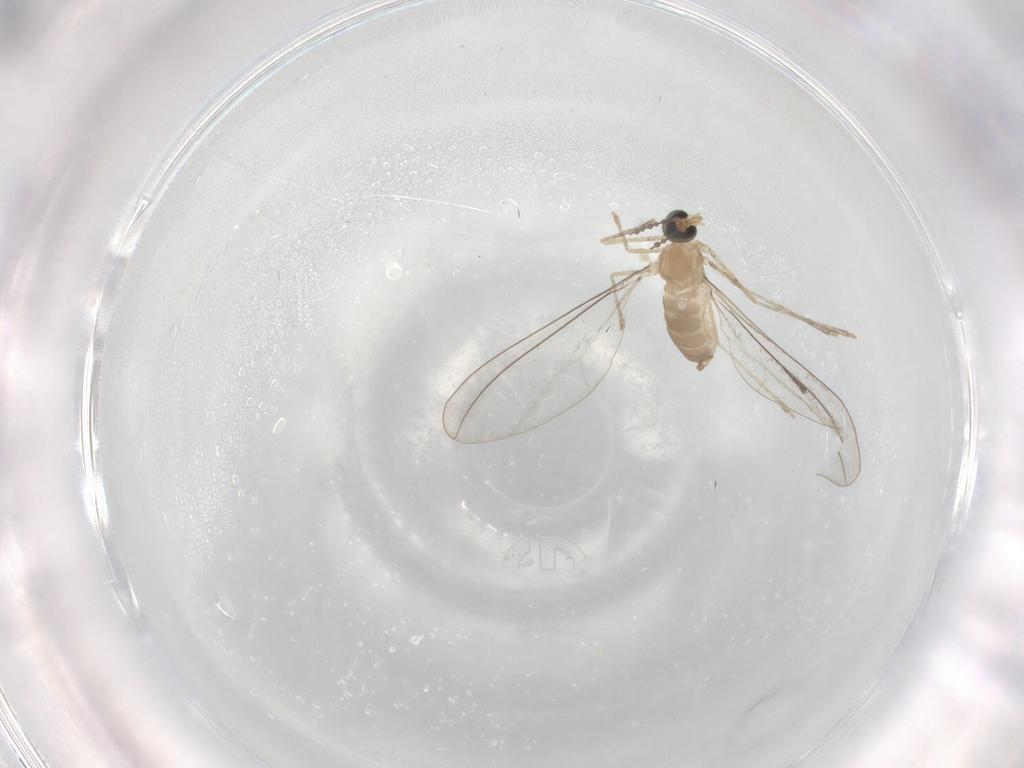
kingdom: Animalia
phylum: Arthropoda
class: Insecta
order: Diptera
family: Cecidomyiidae
